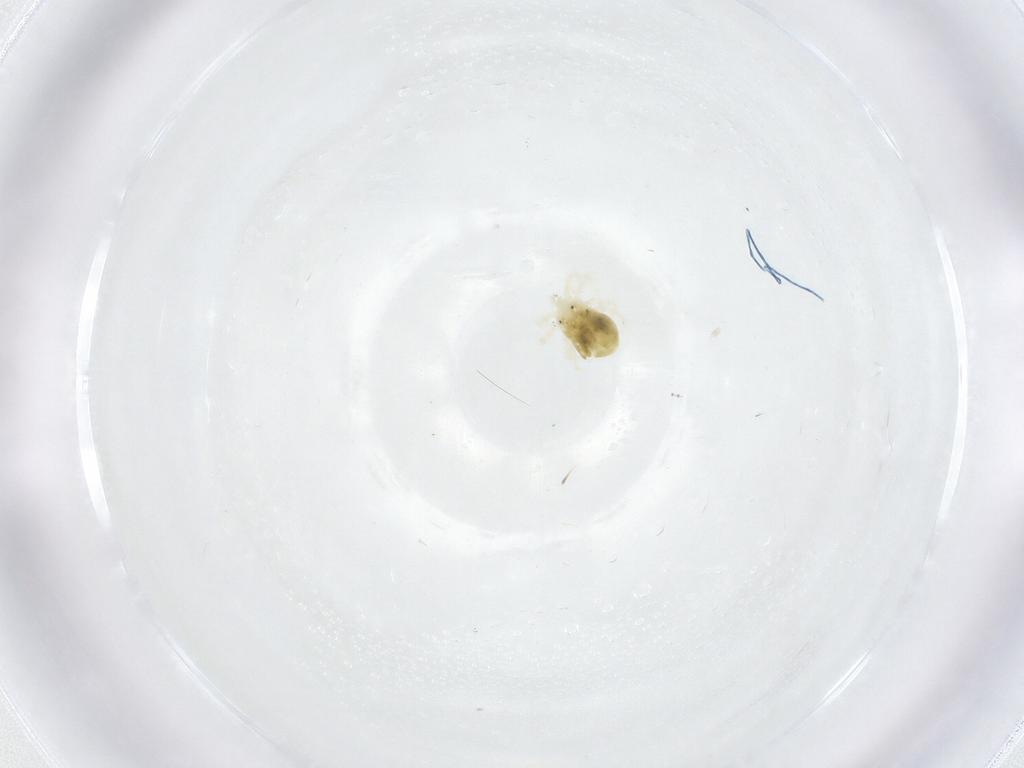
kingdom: Animalia
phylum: Arthropoda
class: Arachnida
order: Trombidiformes
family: Anystidae
